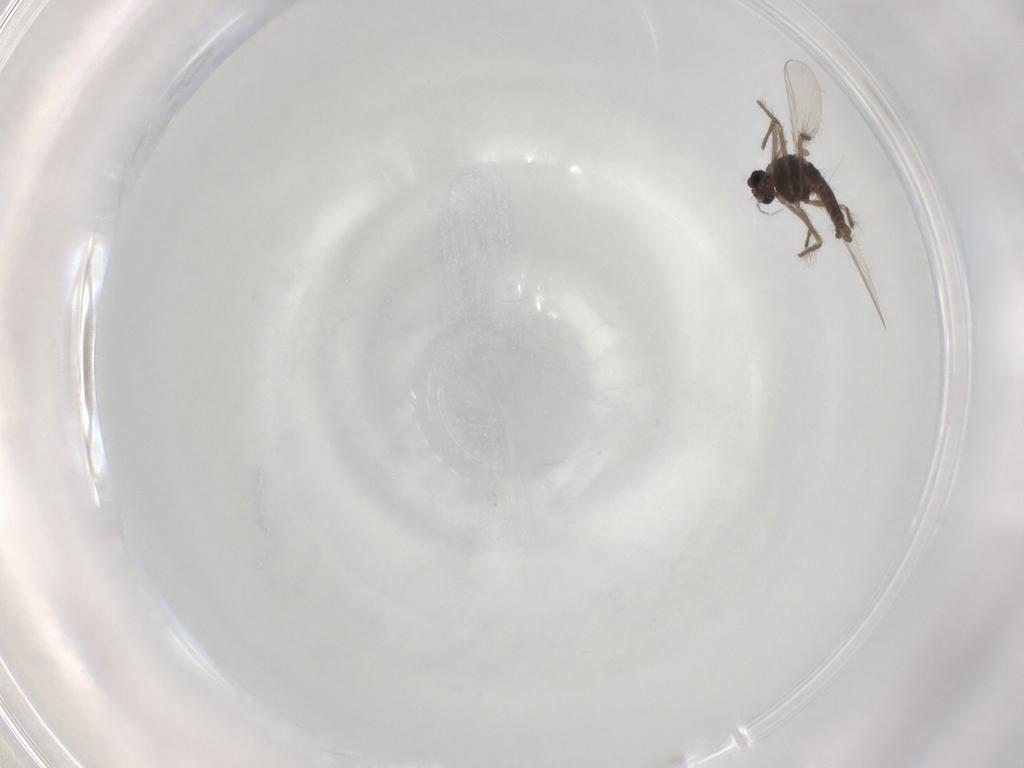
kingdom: Animalia
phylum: Arthropoda
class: Insecta
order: Diptera
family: Chironomidae
